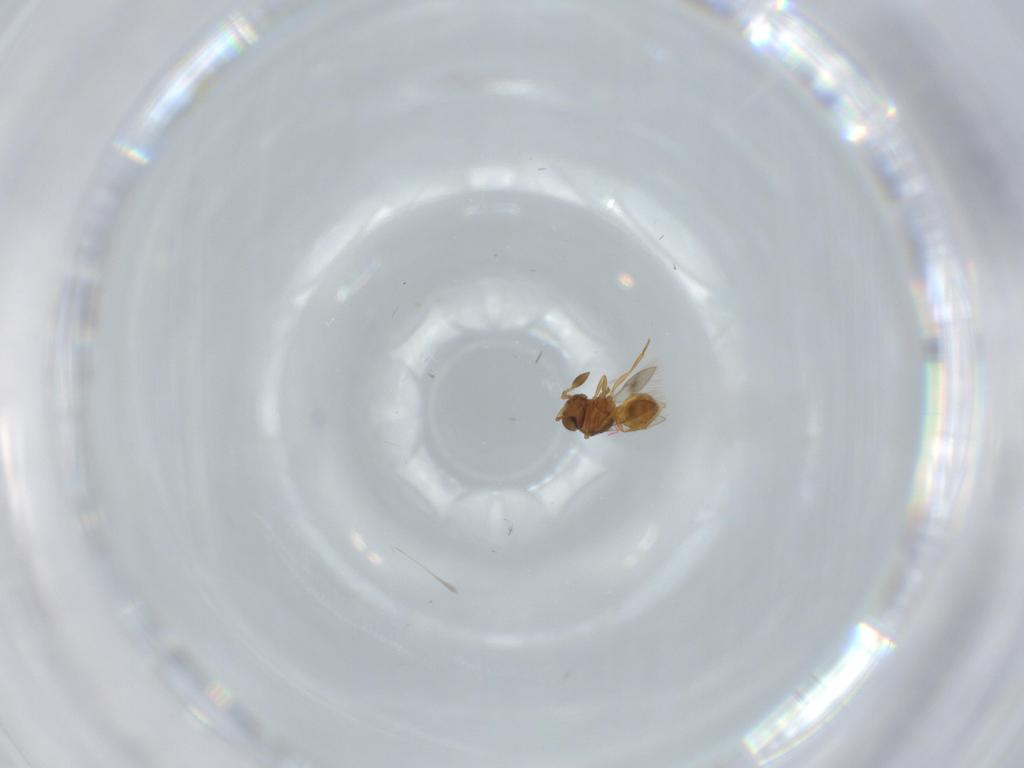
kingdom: Animalia
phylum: Arthropoda
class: Insecta
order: Hymenoptera
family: Scelionidae
